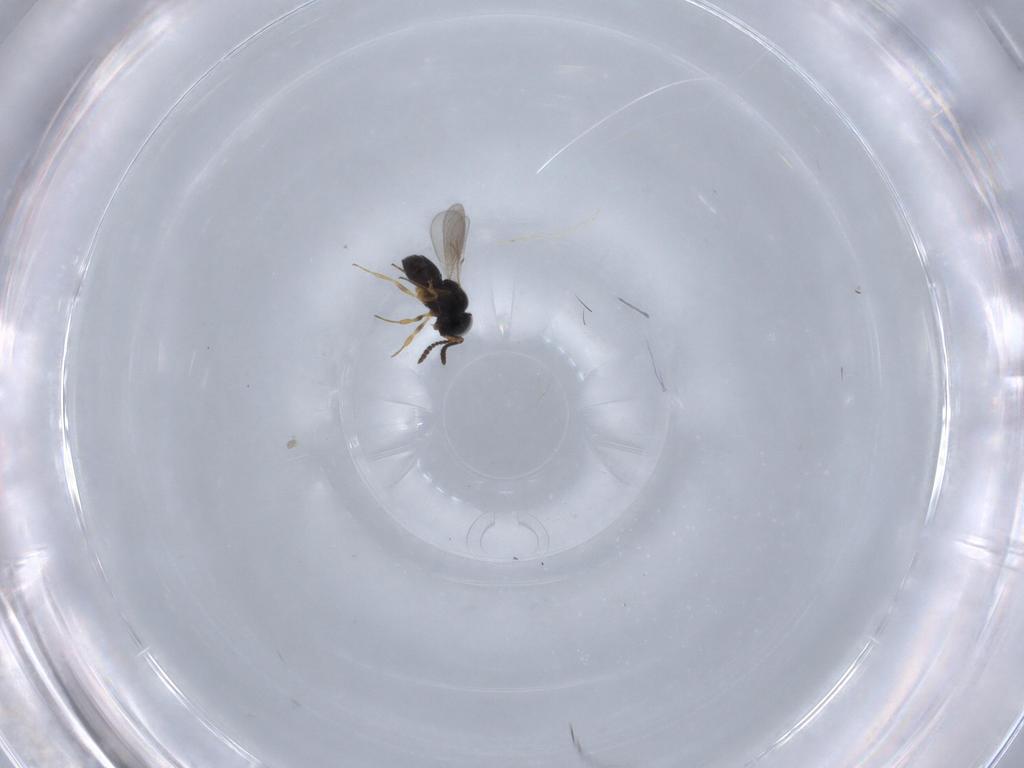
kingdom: Animalia
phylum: Arthropoda
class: Insecta
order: Hymenoptera
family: Scelionidae
